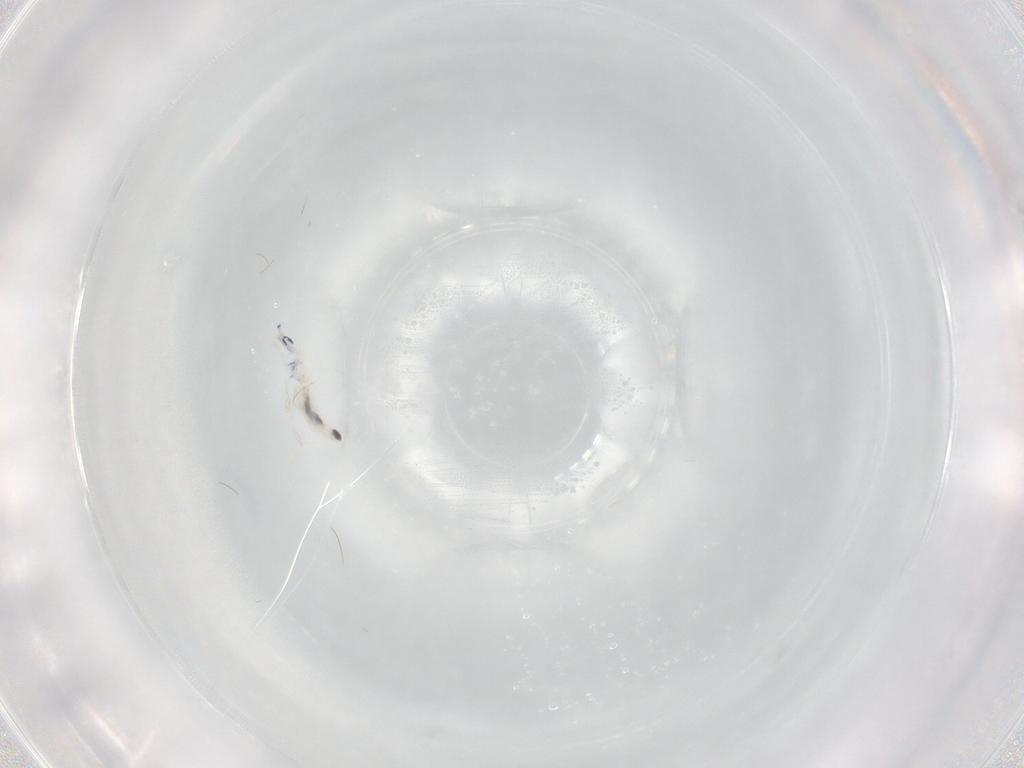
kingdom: Animalia
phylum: Arthropoda
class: Collembola
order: Entomobryomorpha
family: Entomobryidae
